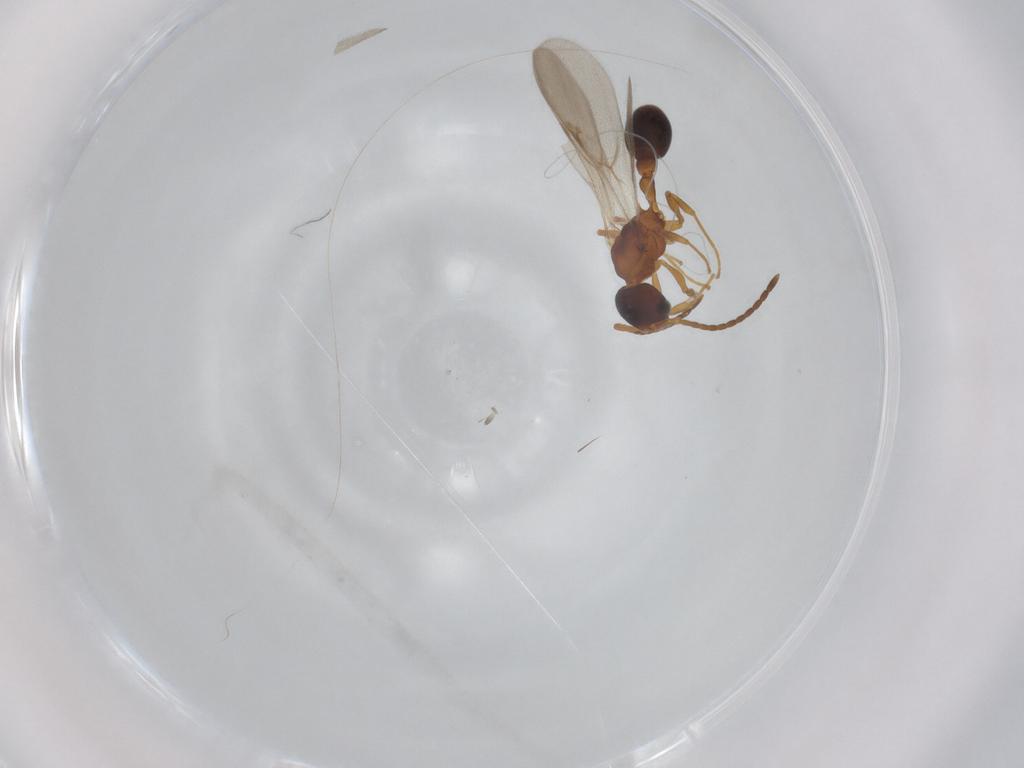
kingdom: Animalia
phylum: Arthropoda
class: Insecta
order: Hymenoptera
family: Formicidae
